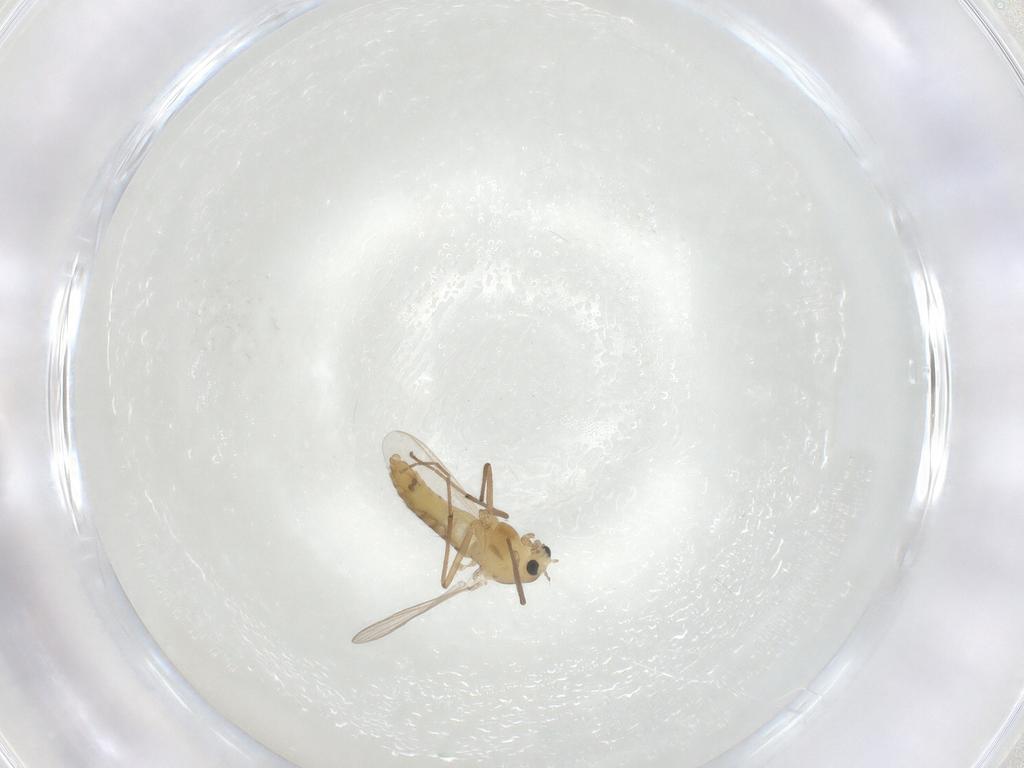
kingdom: Animalia
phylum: Arthropoda
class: Insecta
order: Diptera
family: Chironomidae
